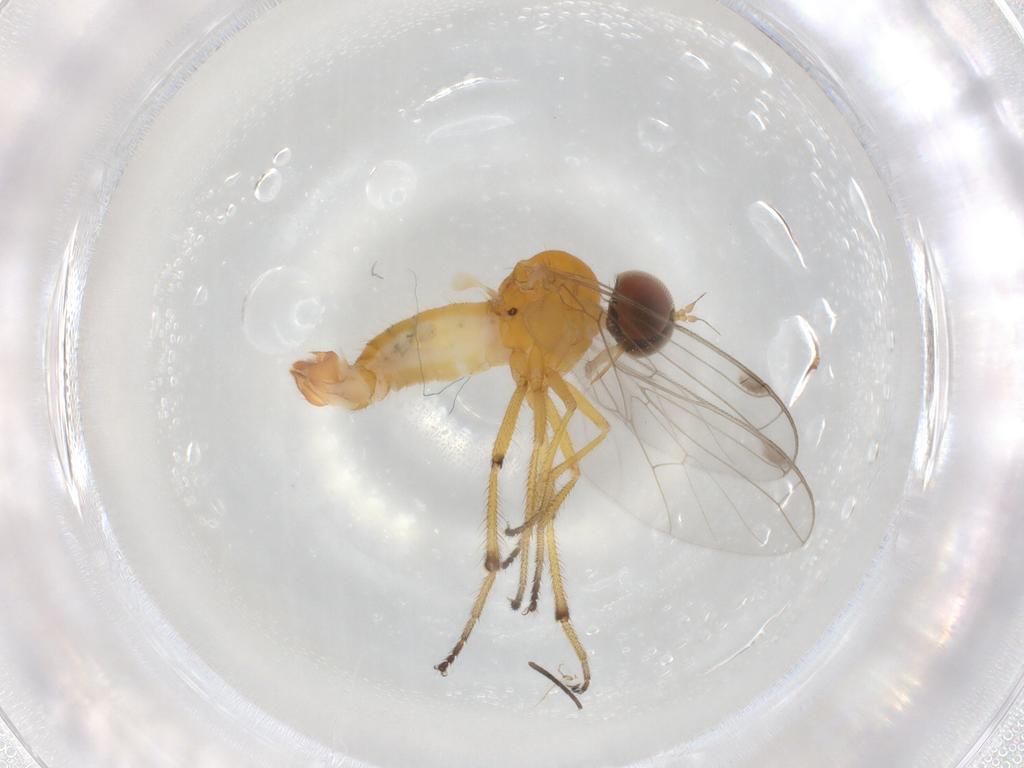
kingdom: Animalia
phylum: Arthropoda
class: Insecta
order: Diptera
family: Empididae
